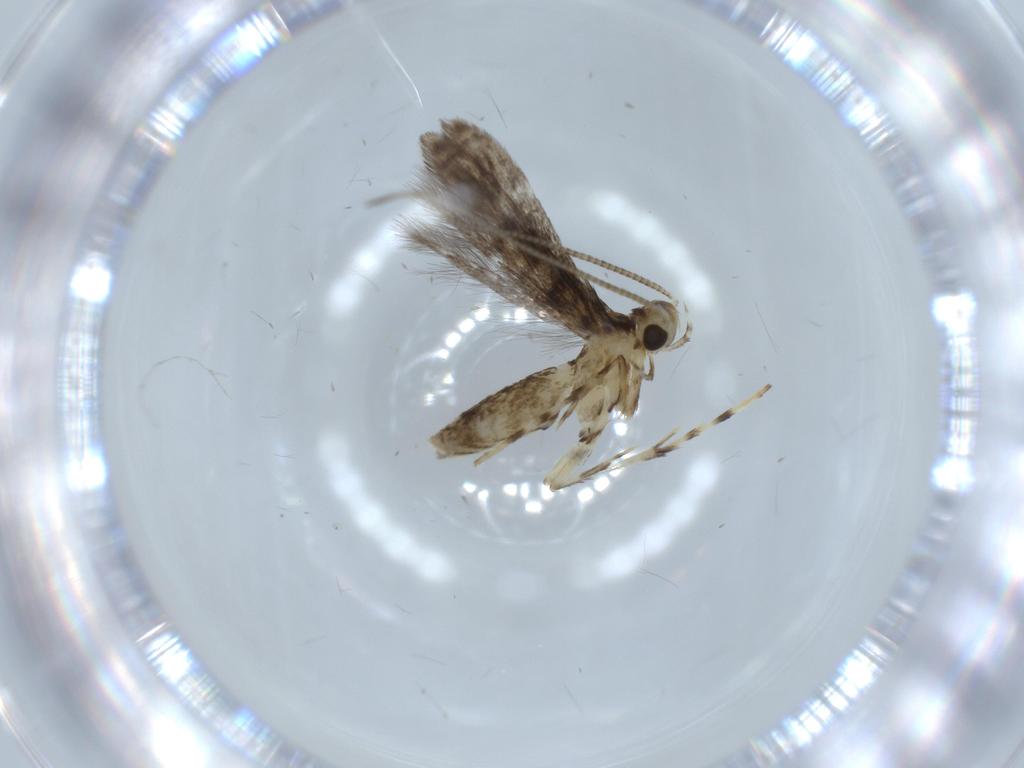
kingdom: Animalia
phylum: Arthropoda
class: Insecta
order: Lepidoptera
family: Gracillariidae
